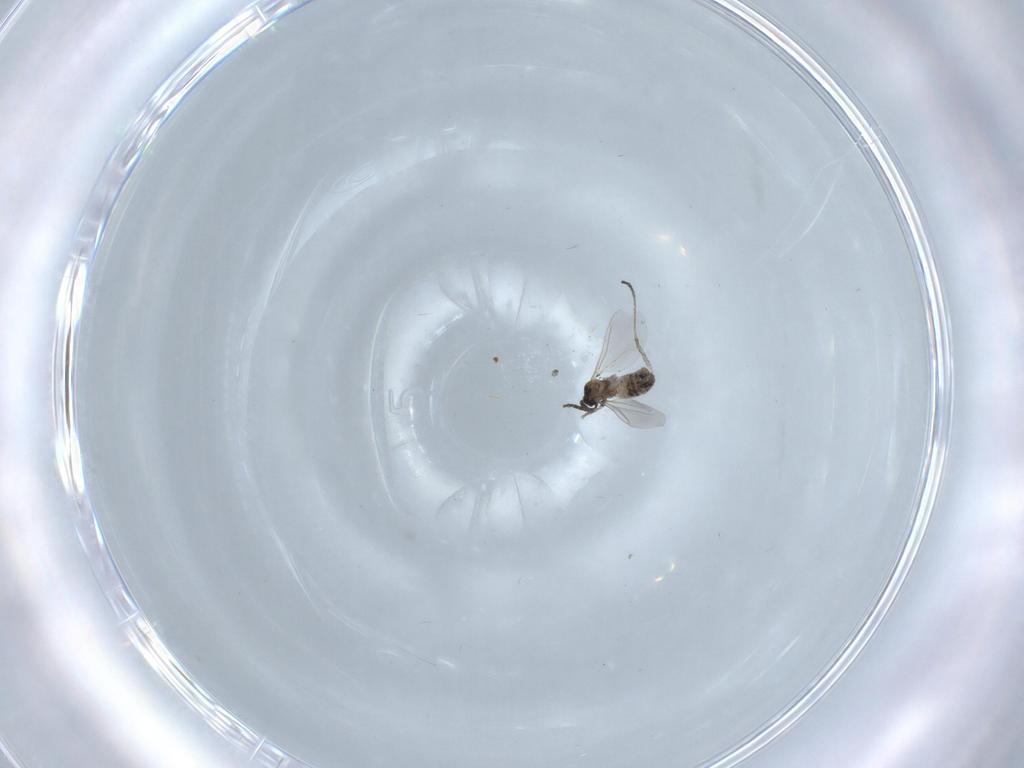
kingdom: Animalia
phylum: Arthropoda
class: Insecta
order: Diptera
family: Cecidomyiidae
